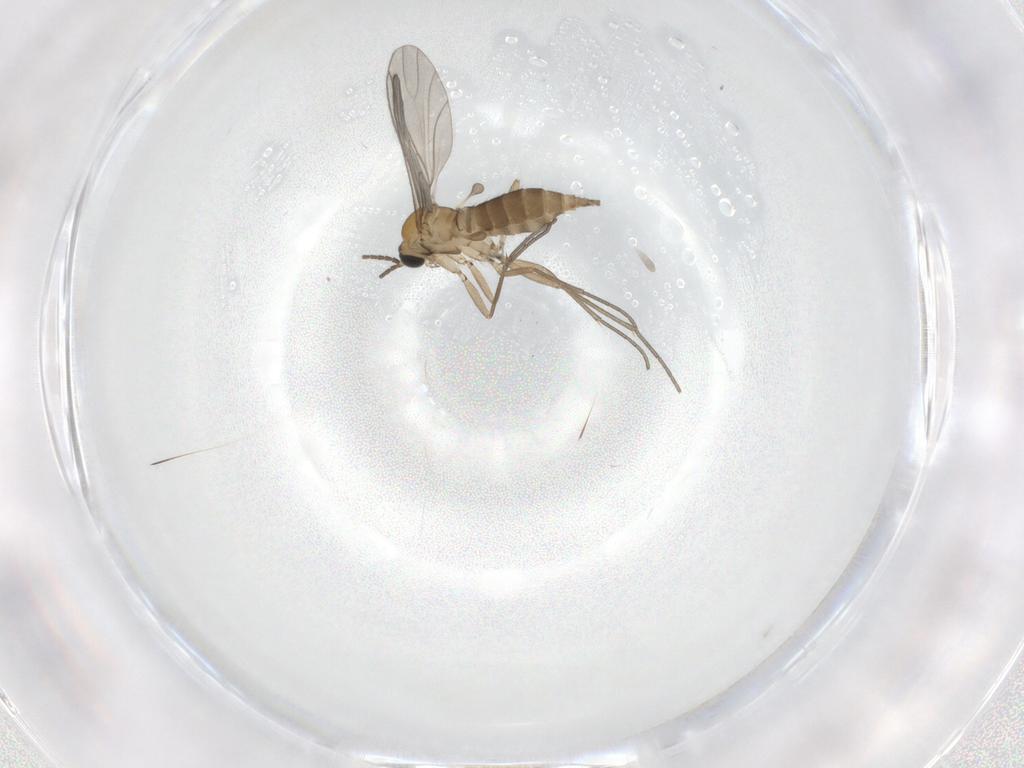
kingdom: Animalia
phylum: Arthropoda
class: Insecta
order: Diptera
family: Sciaridae
